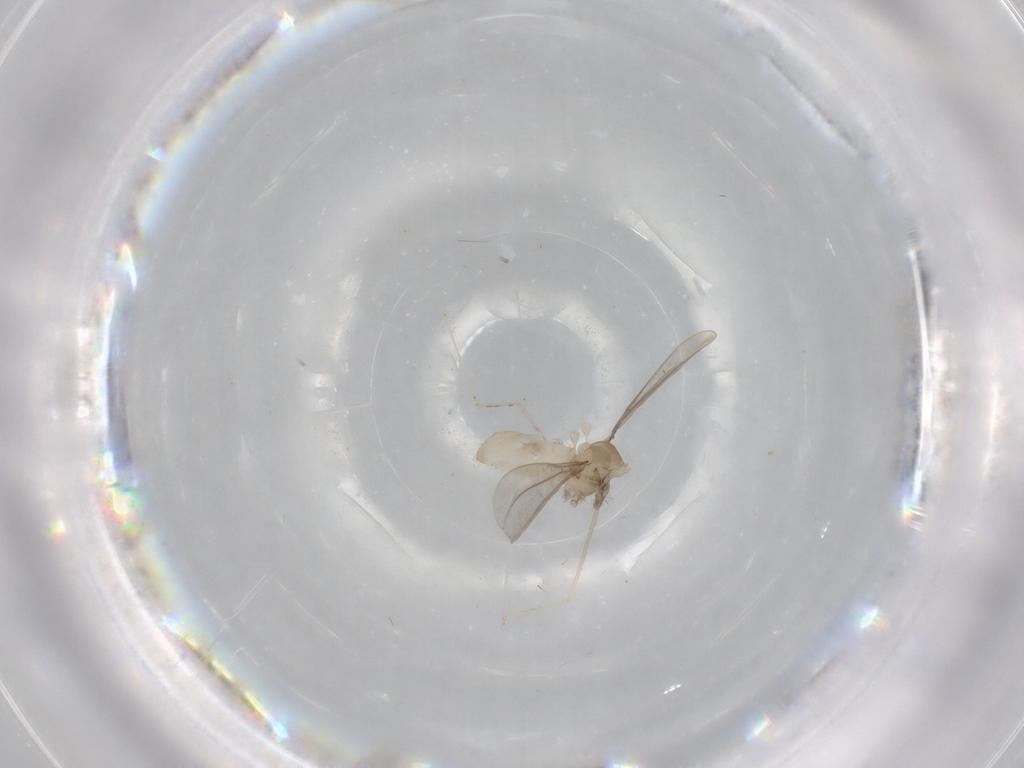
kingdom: Animalia
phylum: Arthropoda
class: Insecta
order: Diptera
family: Cecidomyiidae
